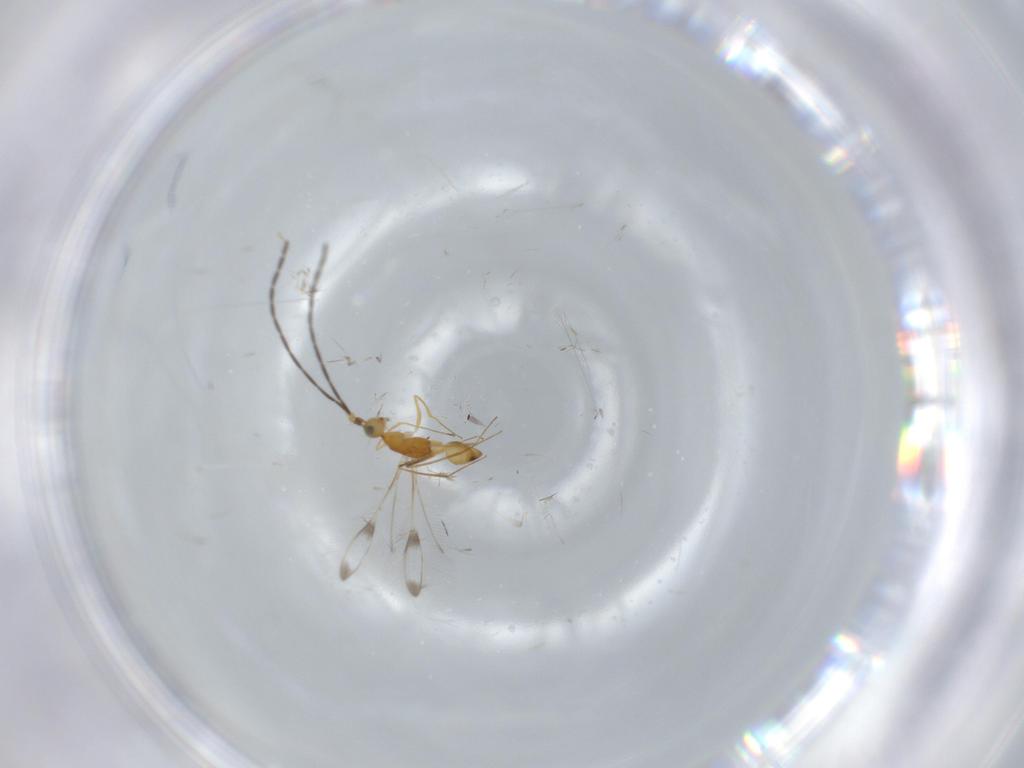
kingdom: Animalia
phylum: Arthropoda
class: Insecta
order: Hymenoptera
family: Mymaridae
